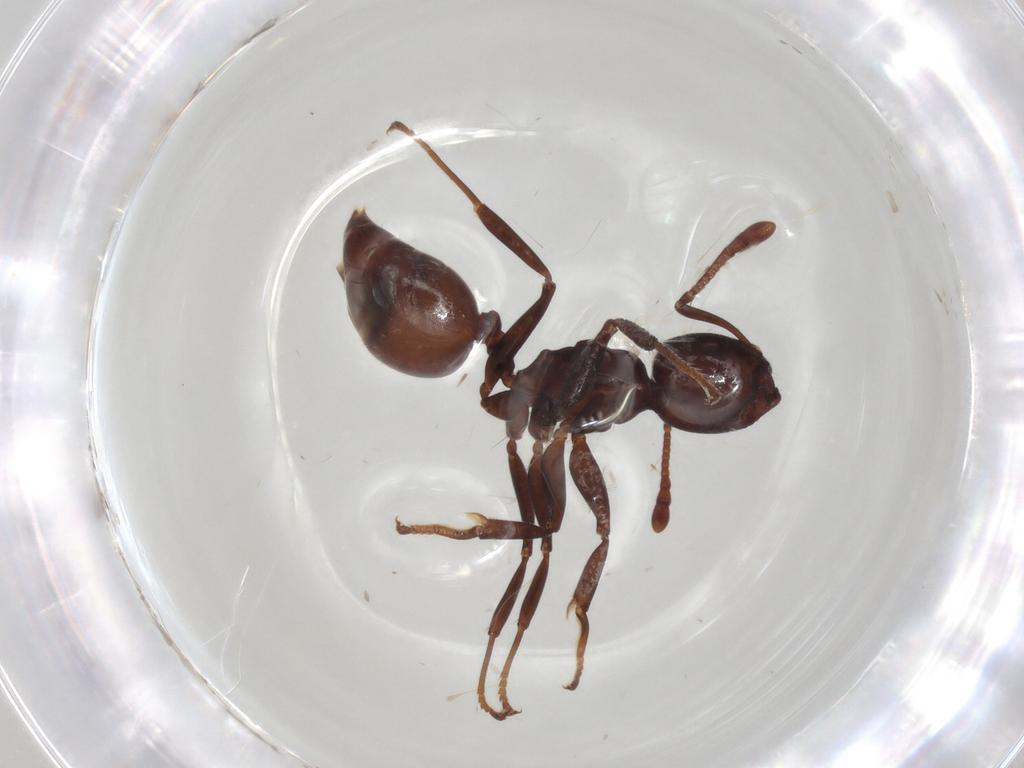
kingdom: Animalia
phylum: Arthropoda
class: Insecta
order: Hymenoptera
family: Formicidae
